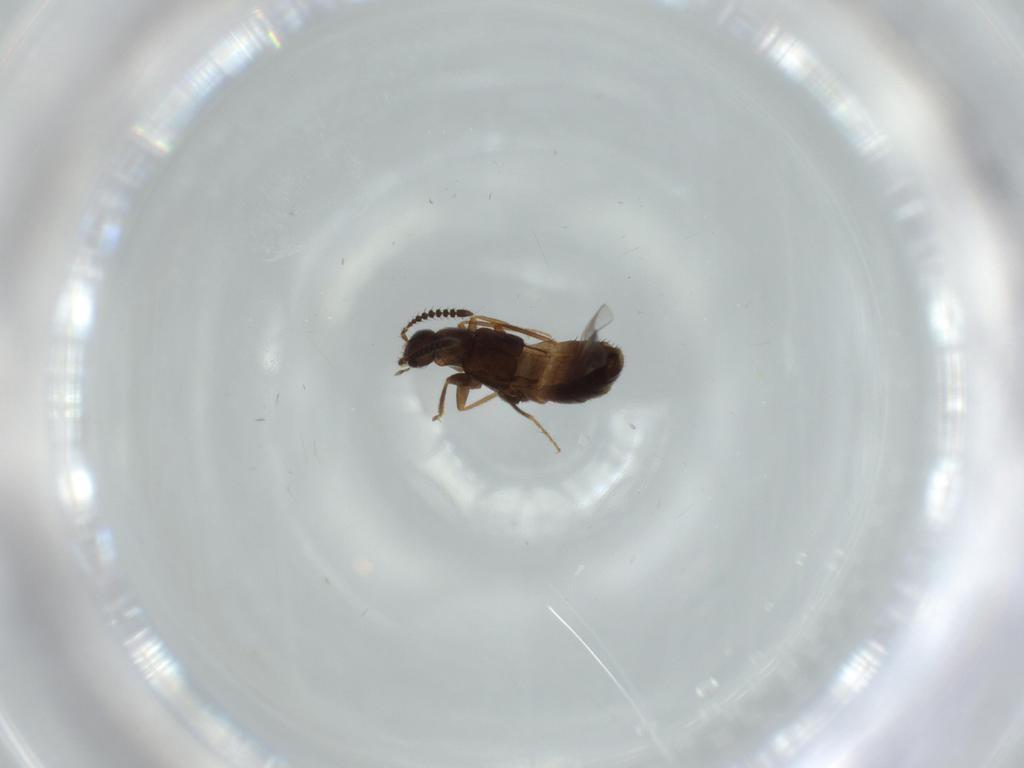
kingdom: Animalia
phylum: Arthropoda
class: Insecta
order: Coleoptera
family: Staphylinidae
